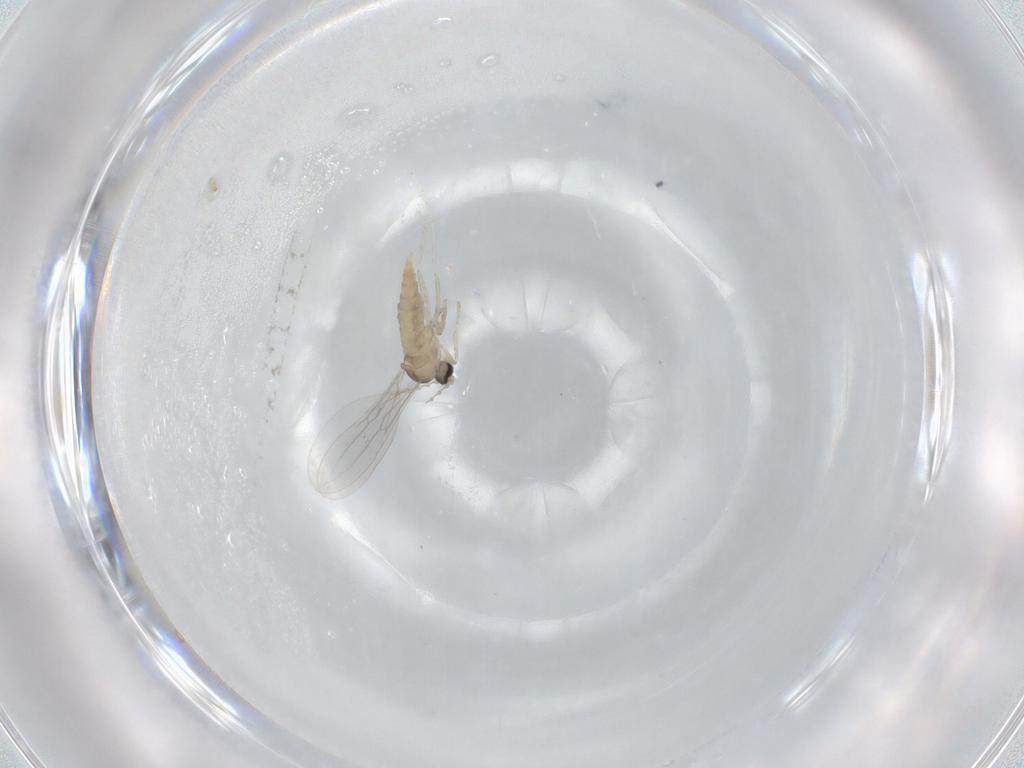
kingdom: Animalia
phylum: Arthropoda
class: Insecta
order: Diptera
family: Cecidomyiidae
